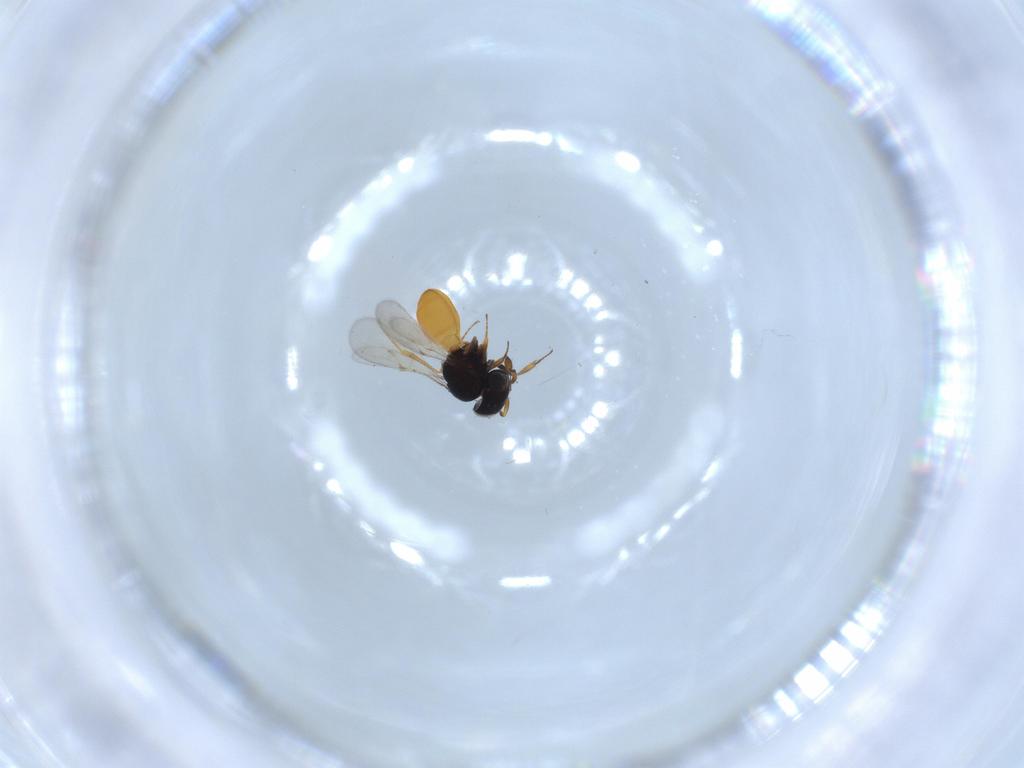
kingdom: Animalia
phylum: Arthropoda
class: Insecta
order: Hymenoptera
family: Scelionidae
